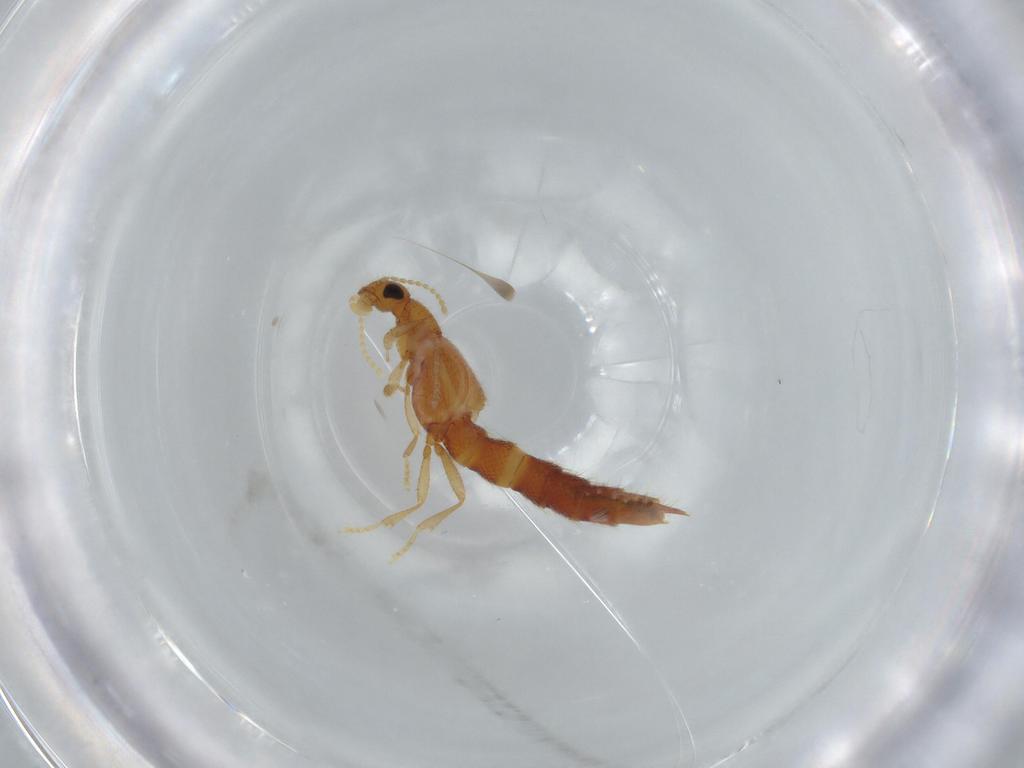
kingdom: Animalia
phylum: Arthropoda
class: Insecta
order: Coleoptera
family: Staphylinidae
